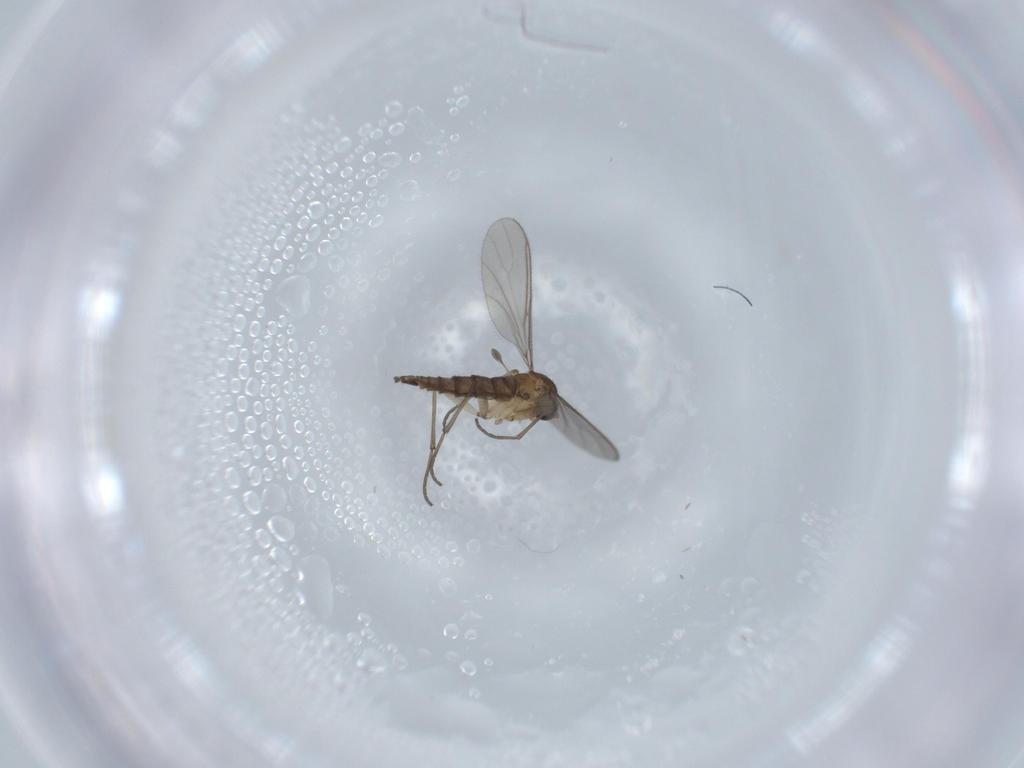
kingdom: Animalia
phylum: Arthropoda
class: Insecta
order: Diptera
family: Sciaridae
